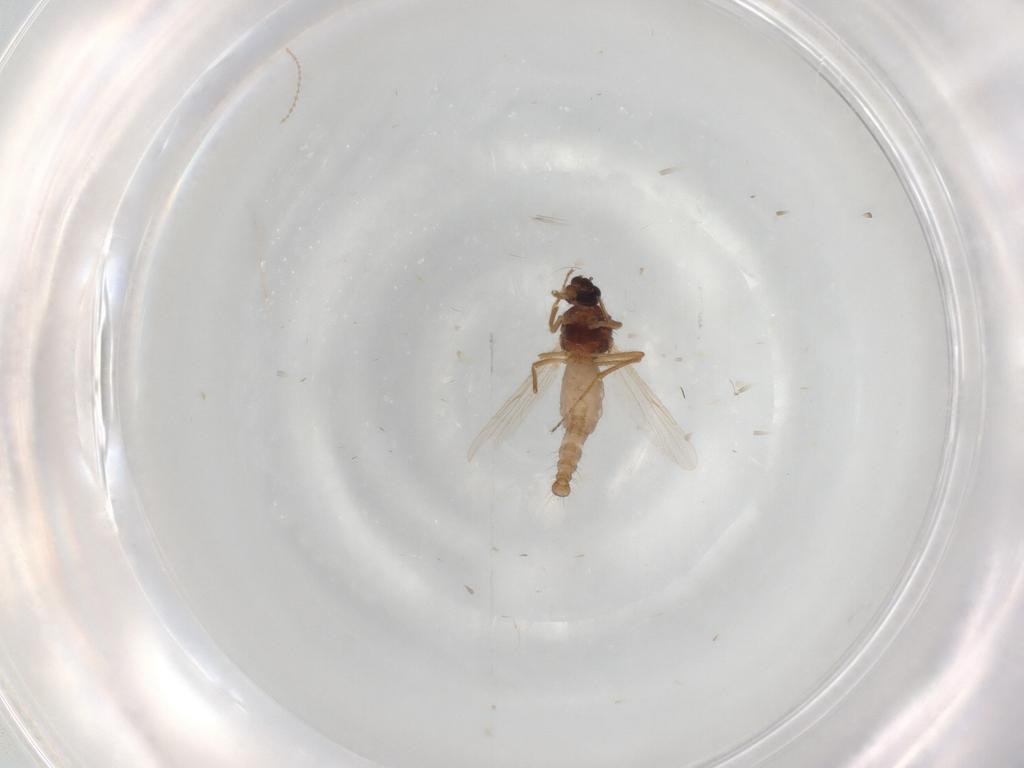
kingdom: Animalia
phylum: Arthropoda
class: Insecta
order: Diptera
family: Ceratopogonidae
